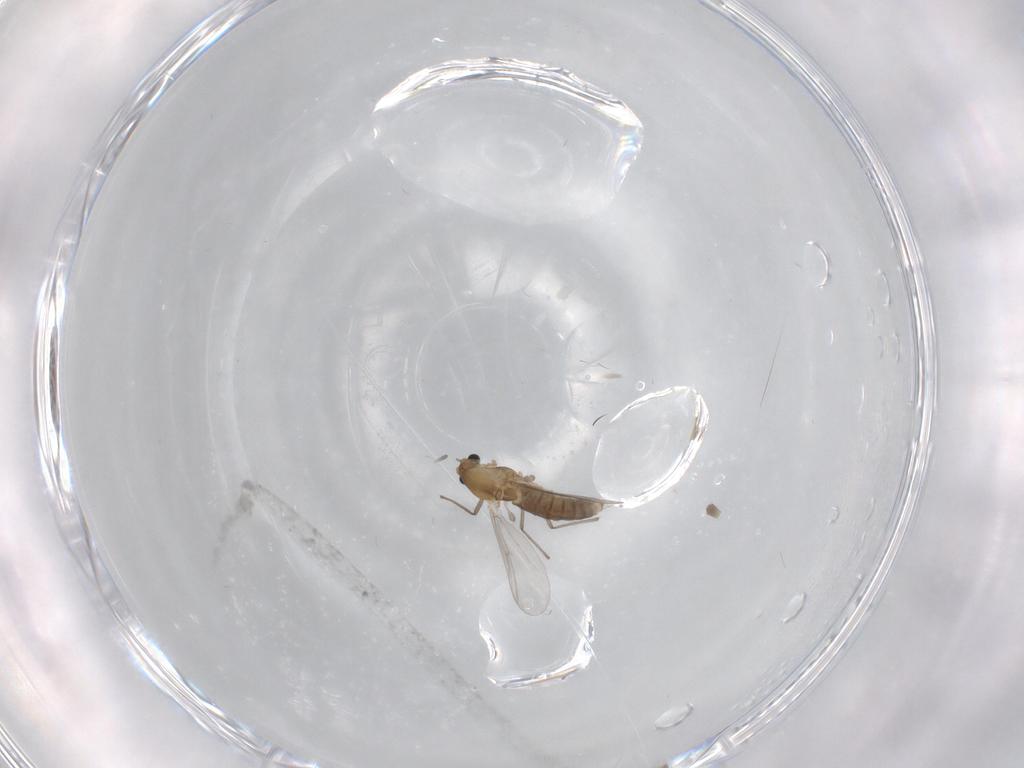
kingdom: Animalia
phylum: Arthropoda
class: Insecta
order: Diptera
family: Chironomidae
